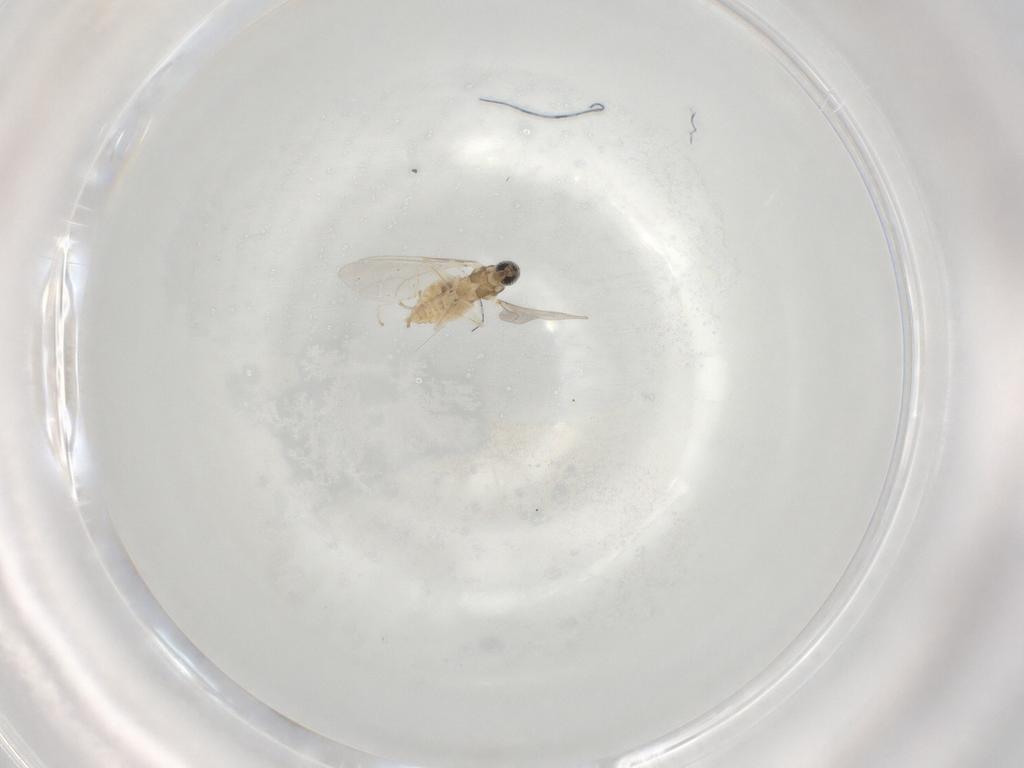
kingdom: Animalia
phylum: Arthropoda
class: Insecta
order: Diptera
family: Cecidomyiidae
